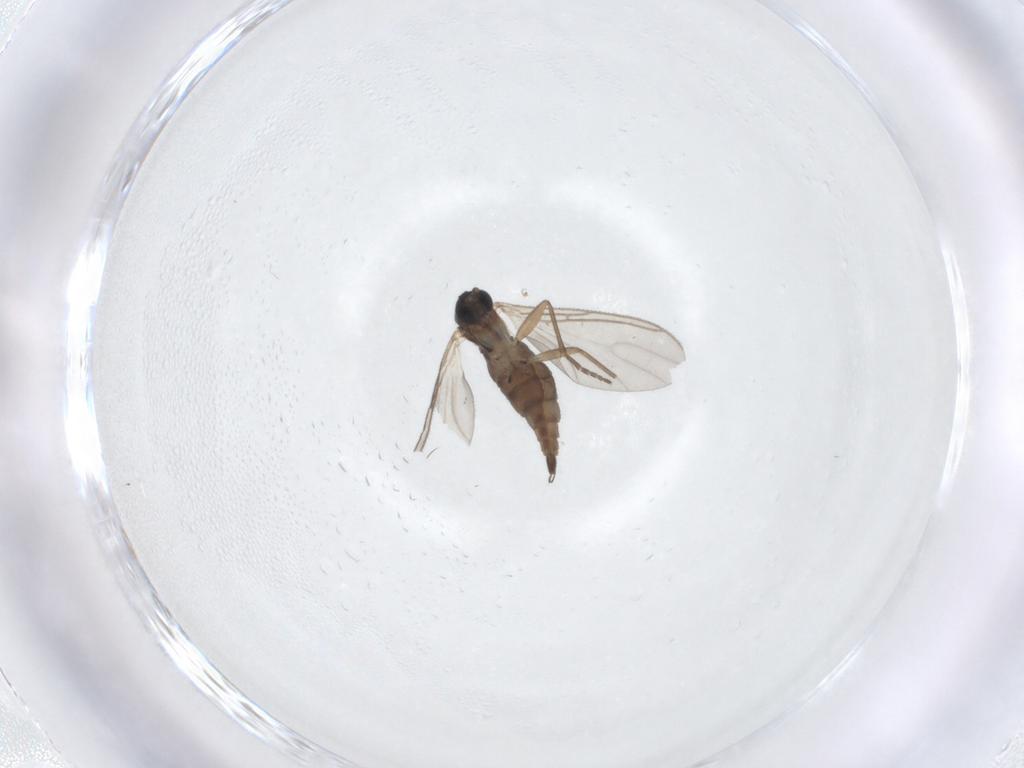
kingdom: Animalia
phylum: Arthropoda
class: Insecta
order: Diptera
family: Sciaridae
